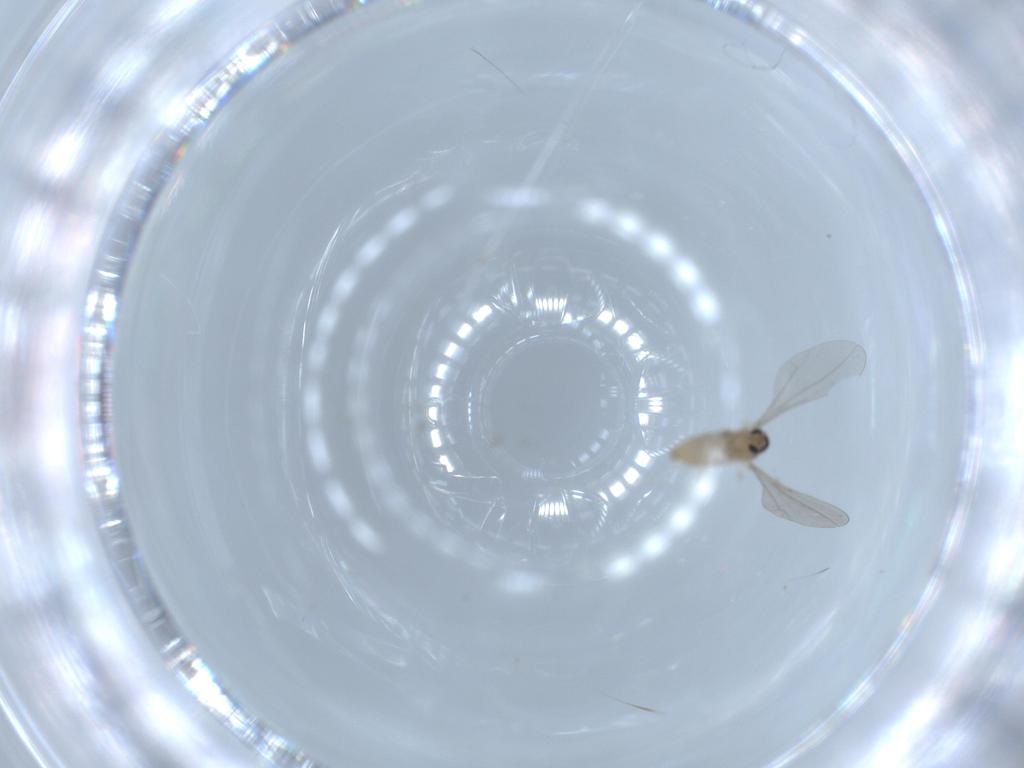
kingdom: Animalia
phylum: Arthropoda
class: Insecta
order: Diptera
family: Cecidomyiidae
